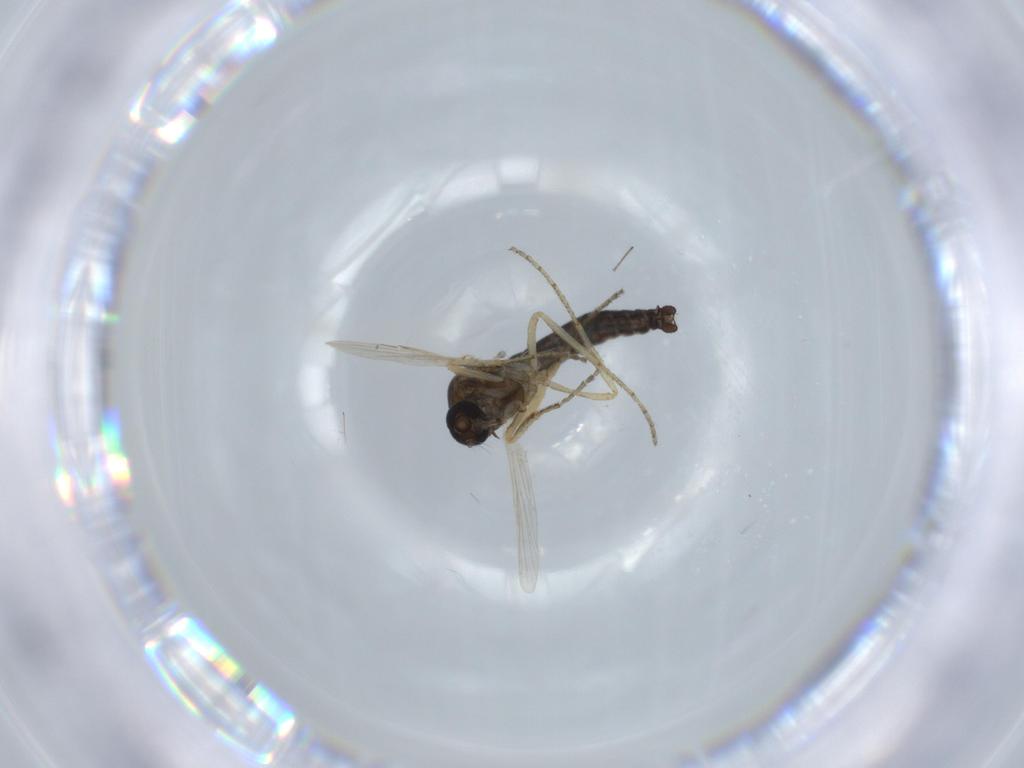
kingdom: Animalia
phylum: Arthropoda
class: Insecta
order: Diptera
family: Ceratopogonidae
